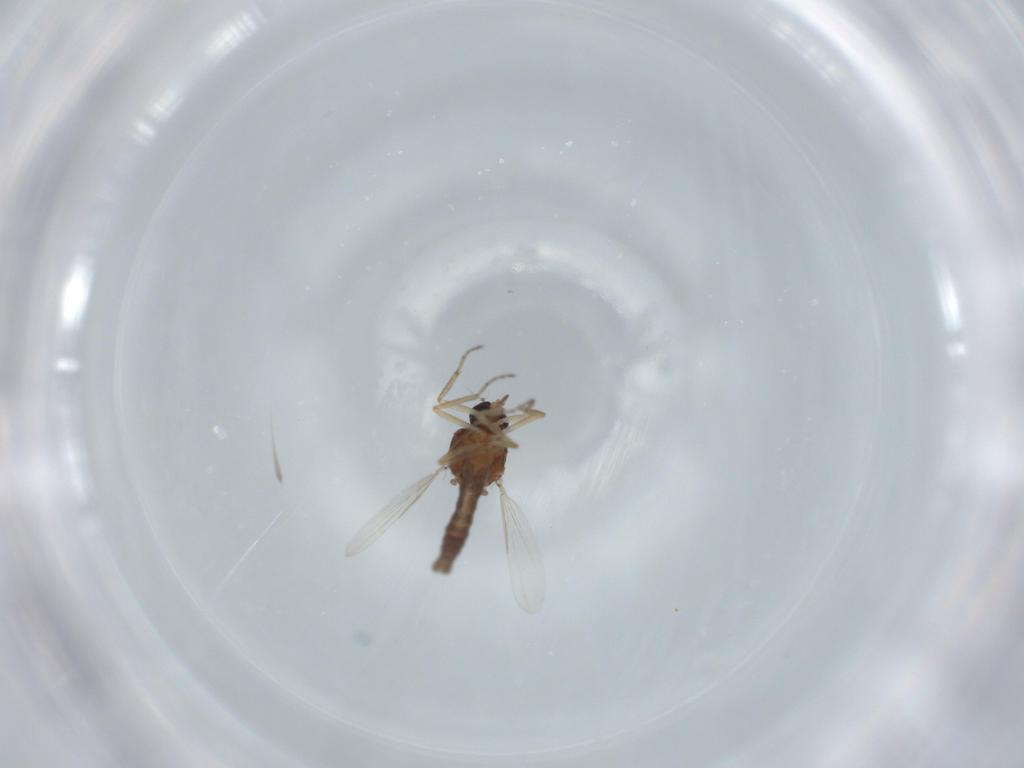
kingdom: Animalia
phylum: Arthropoda
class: Insecta
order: Diptera
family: Ceratopogonidae
